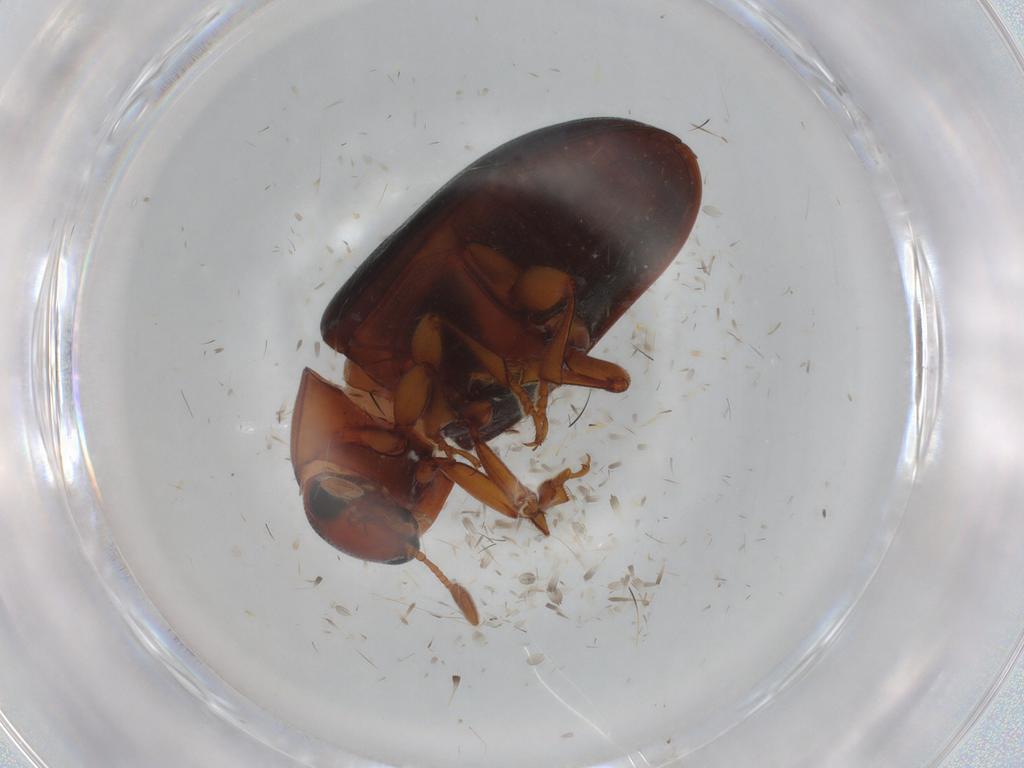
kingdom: Animalia
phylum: Arthropoda
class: Insecta
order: Coleoptera
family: Erotylidae
